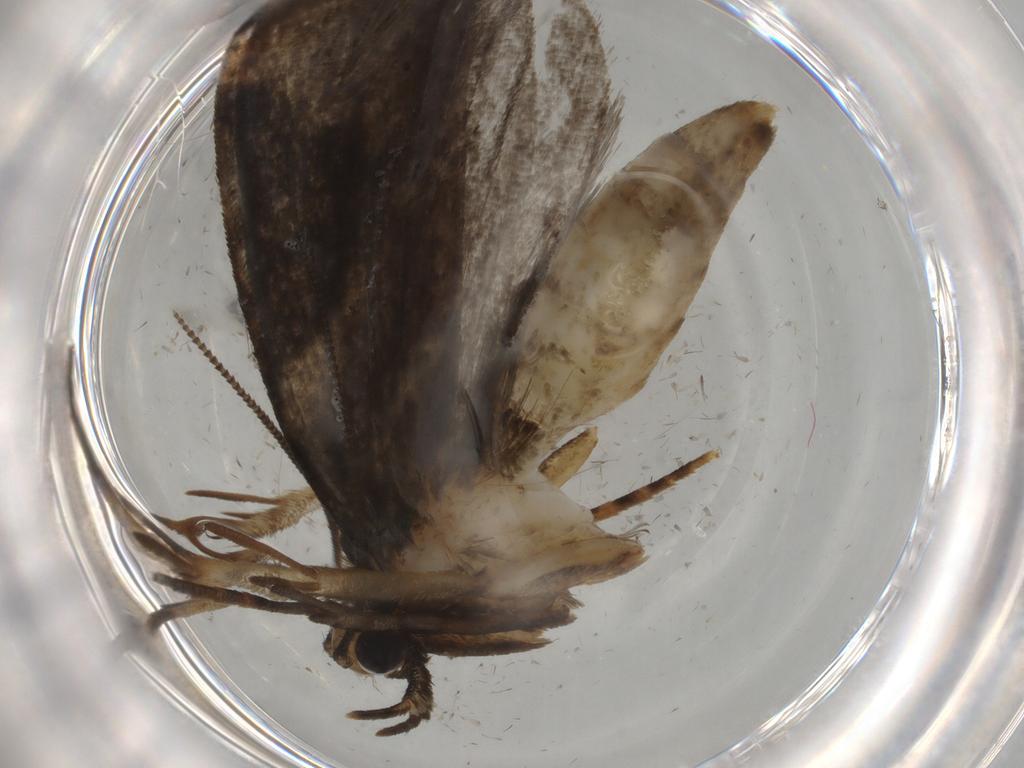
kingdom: Animalia
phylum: Arthropoda
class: Insecta
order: Lepidoptera
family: Tineidae
